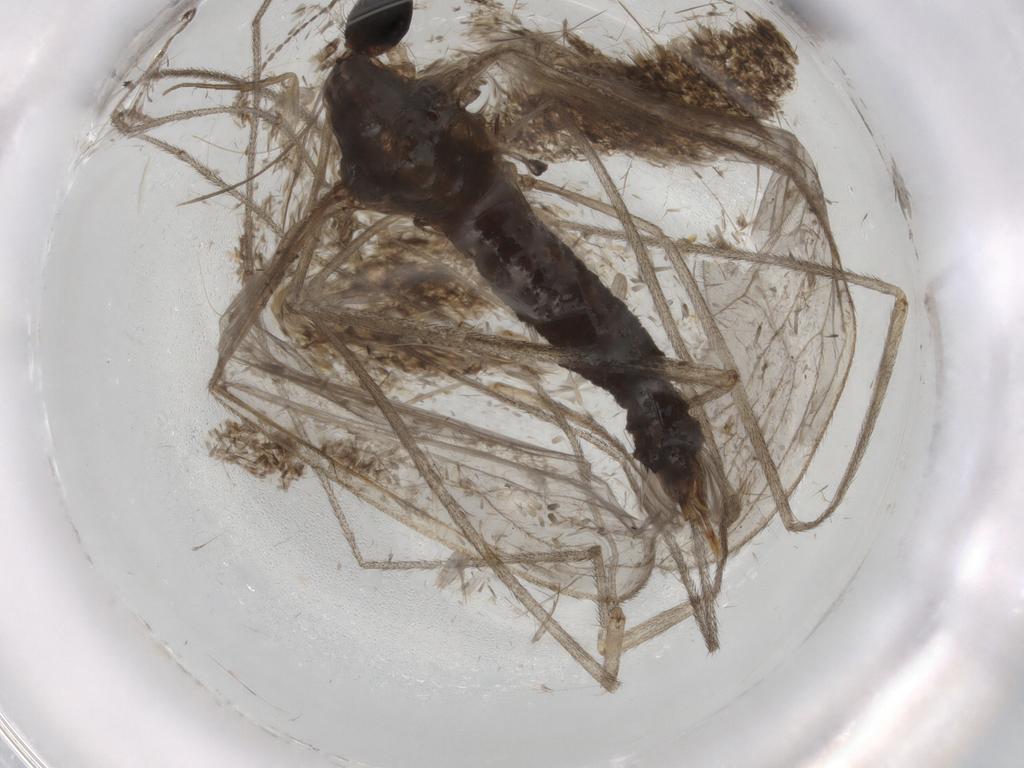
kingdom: Animalia
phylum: Arthropoda
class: Insecta
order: Diptera
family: Limoniidae
